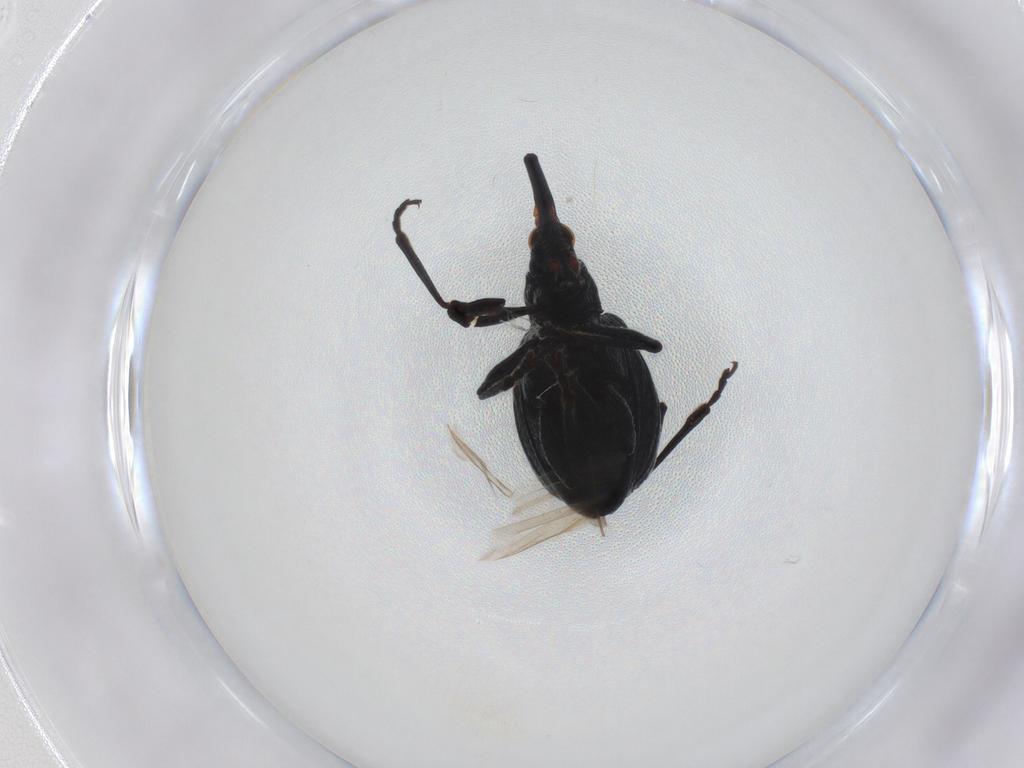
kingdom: Animalia
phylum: Arthropoda
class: Insecta
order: Coleoptera
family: Brentidae
